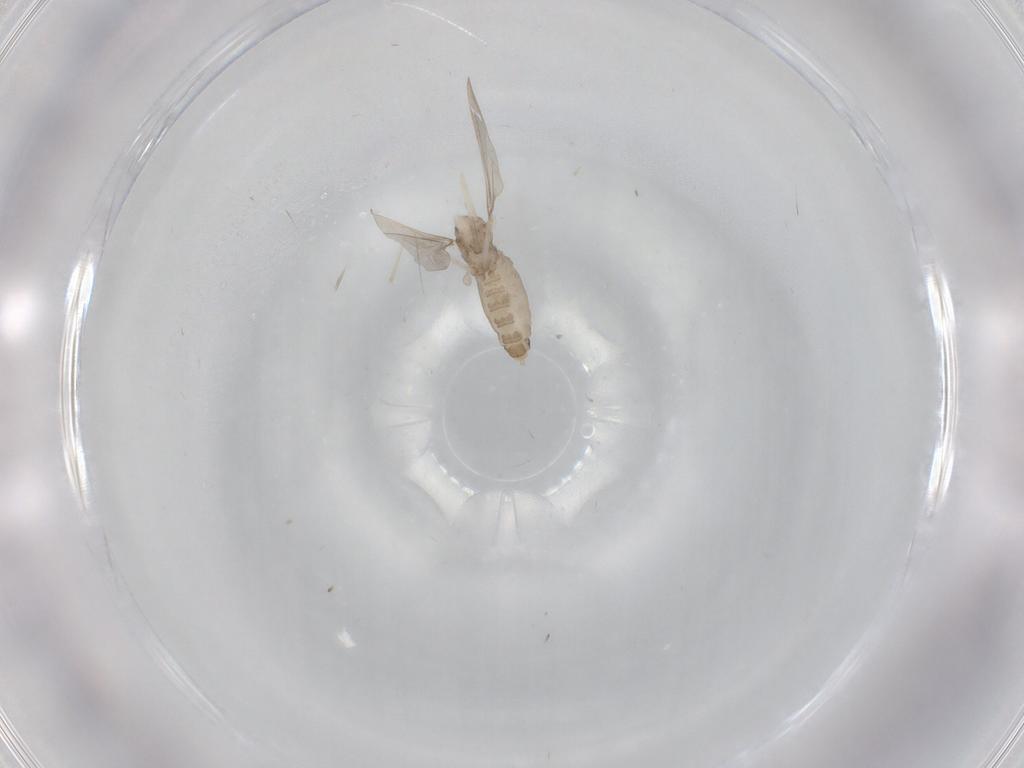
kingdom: Animalia
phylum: Arthropoda
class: Insecta
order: Diptera
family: Cecidomyiidae
